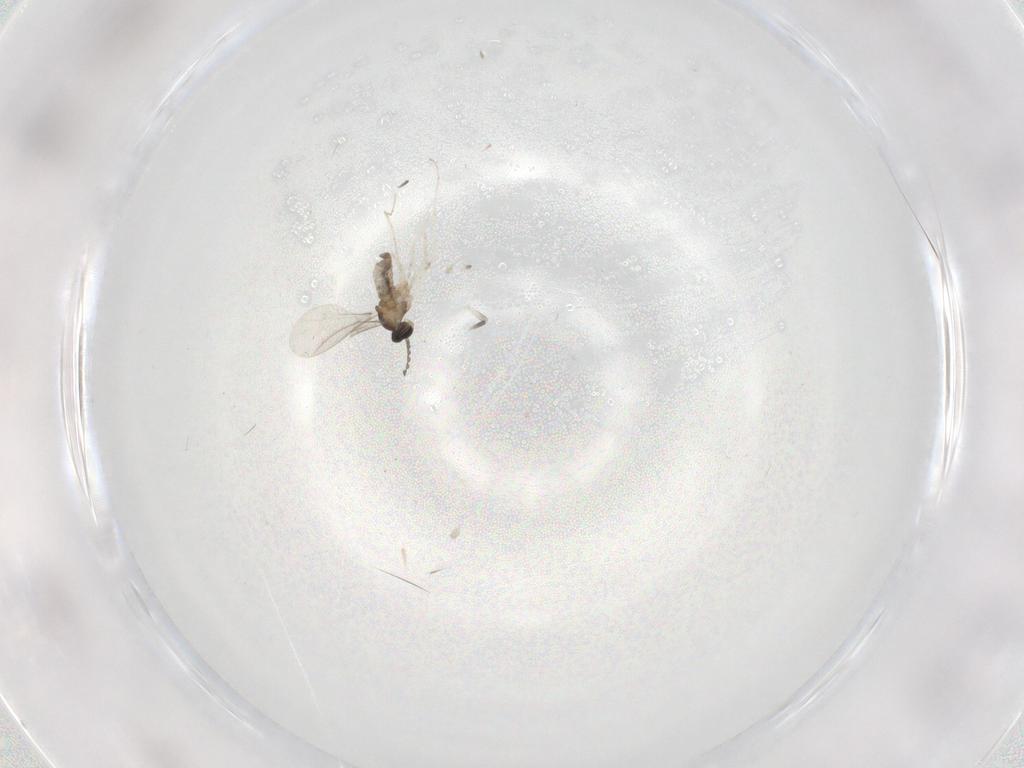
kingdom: Animalia
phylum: Arthropoda
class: Insecta
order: Diptera
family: Cecidomyiidae
